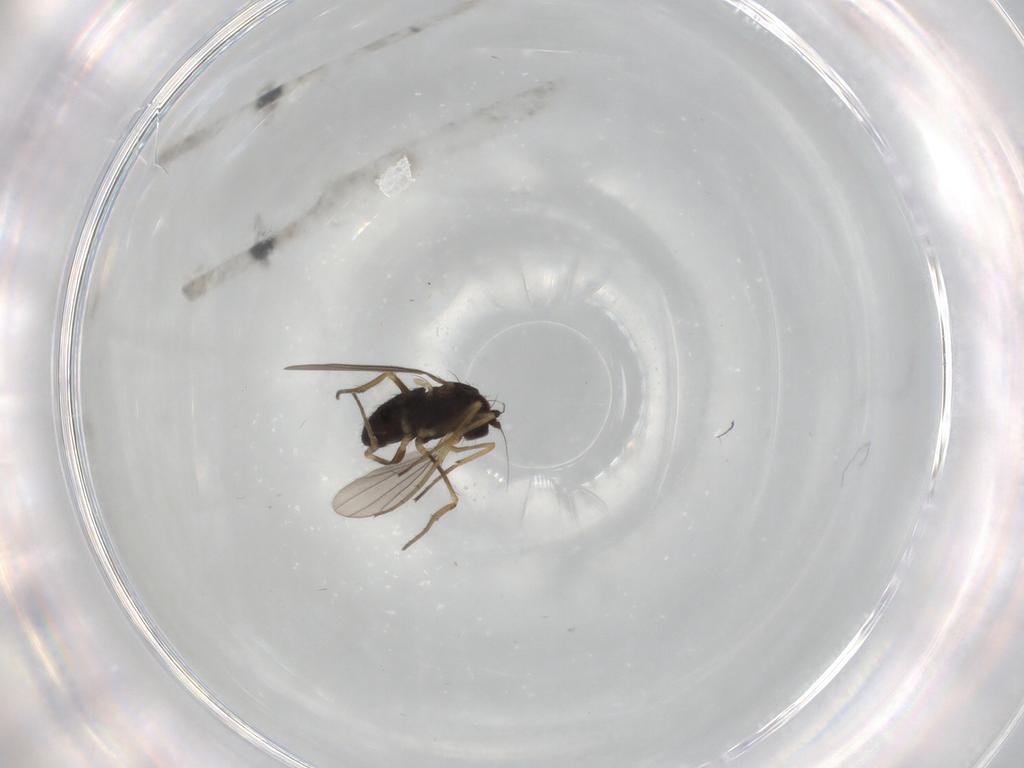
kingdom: Animalia
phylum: Arthropoda
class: Insecta
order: Diptera
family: Dolichopodidae
